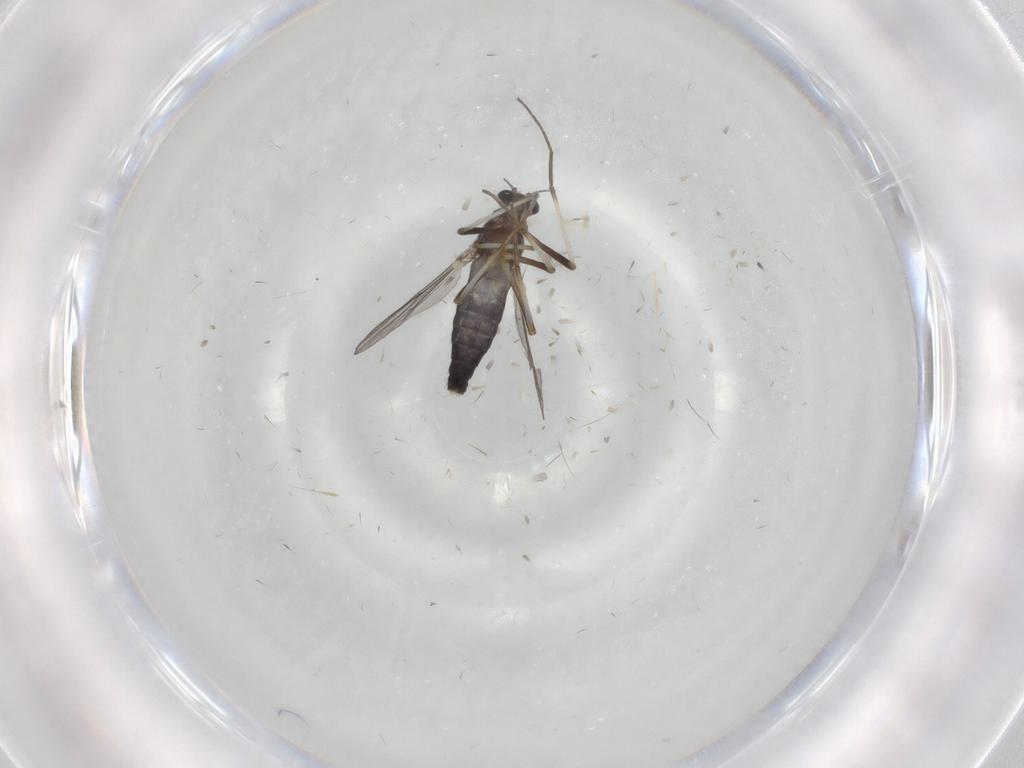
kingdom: Animalia
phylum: Arthropoda
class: Insecta
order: Diptera
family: Chironomidae
